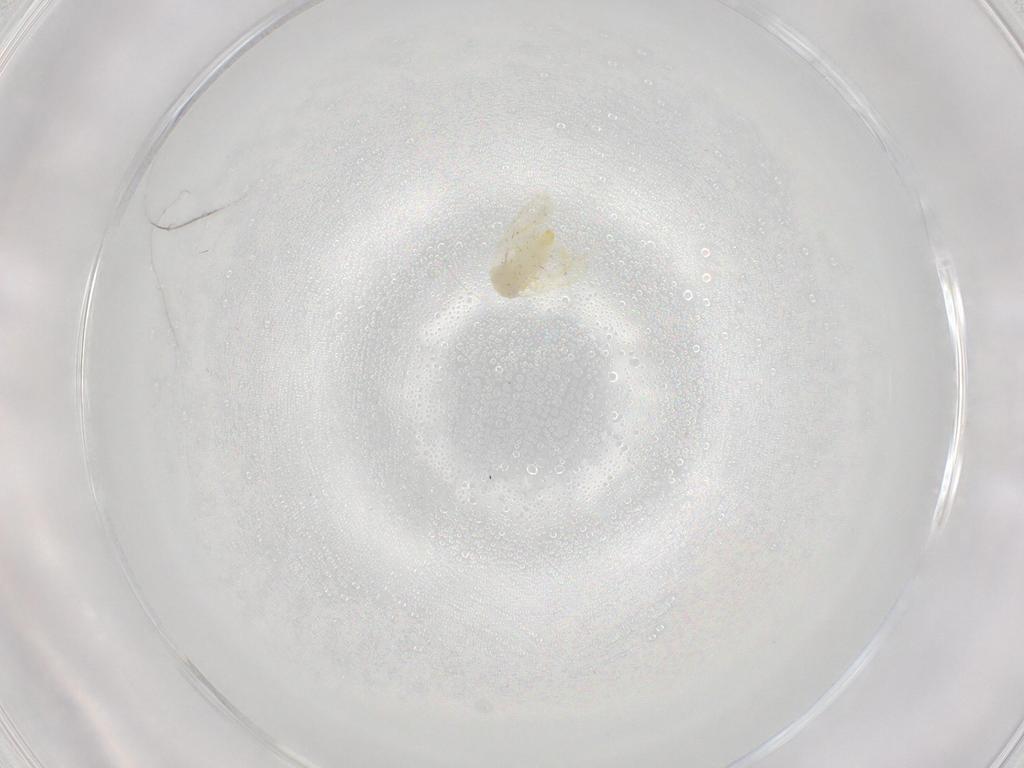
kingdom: Animalia
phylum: Arthropoda
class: Insecta
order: Hemiptera
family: Aleyrodidae
